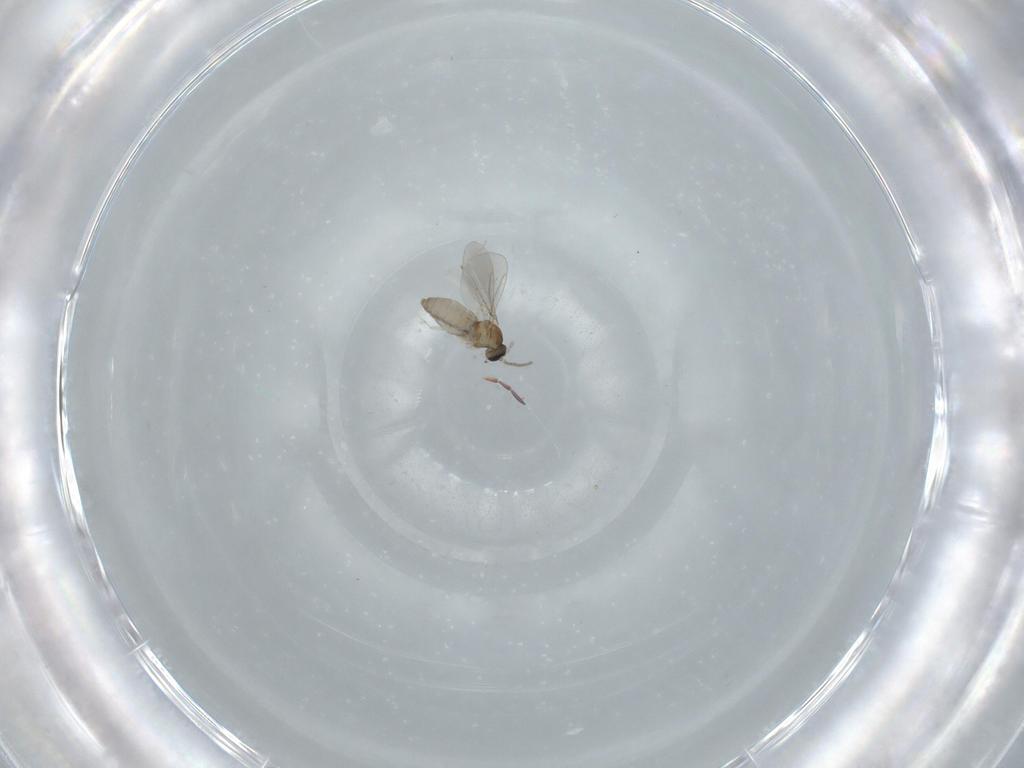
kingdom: Animalia
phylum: Arthropoda
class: Insecta
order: Diptera
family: Cecidomyiidae
